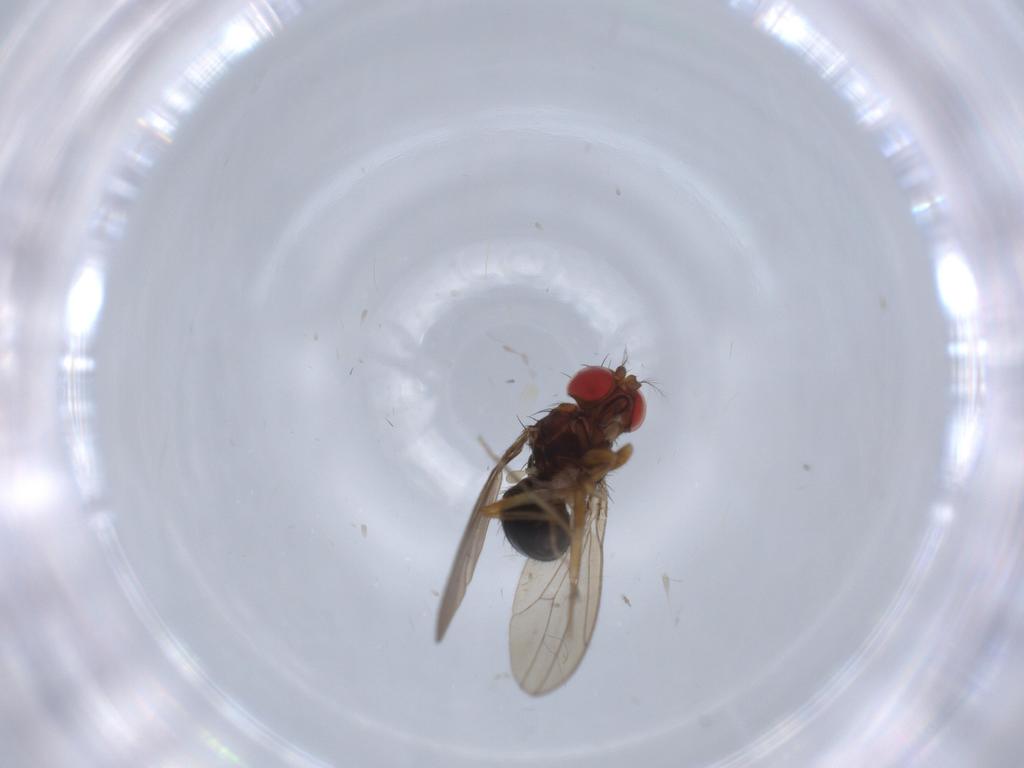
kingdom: Animalia
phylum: Arthropoda
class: Insecta
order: Diptera
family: Drosophilidae
